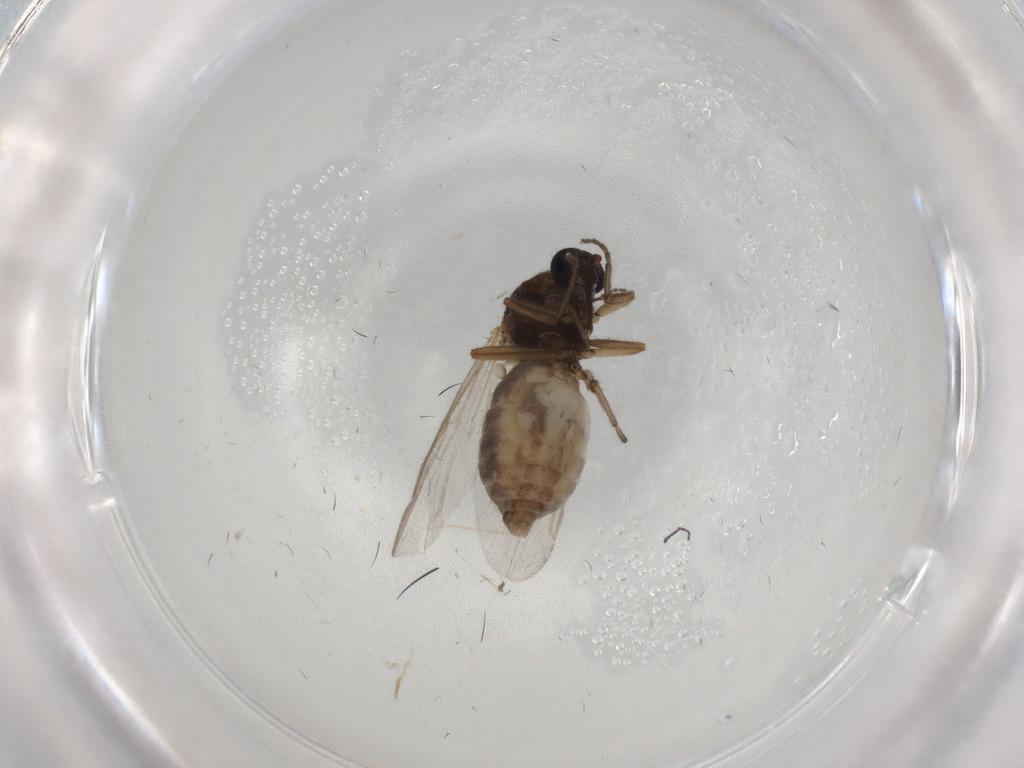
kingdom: Animalia
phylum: Arthropoda
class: Insecta
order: Diptera
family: Ceratopogonidae
